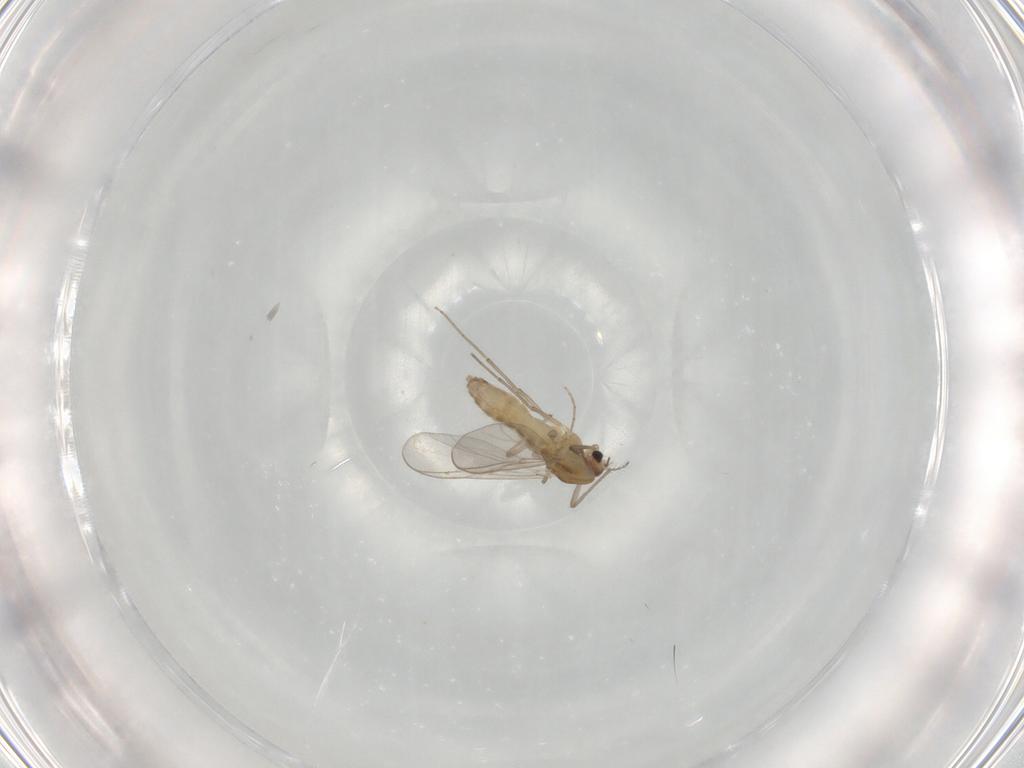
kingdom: Animalia
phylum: Arthropoda
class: Insecta
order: Diptera
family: Chironomidae
